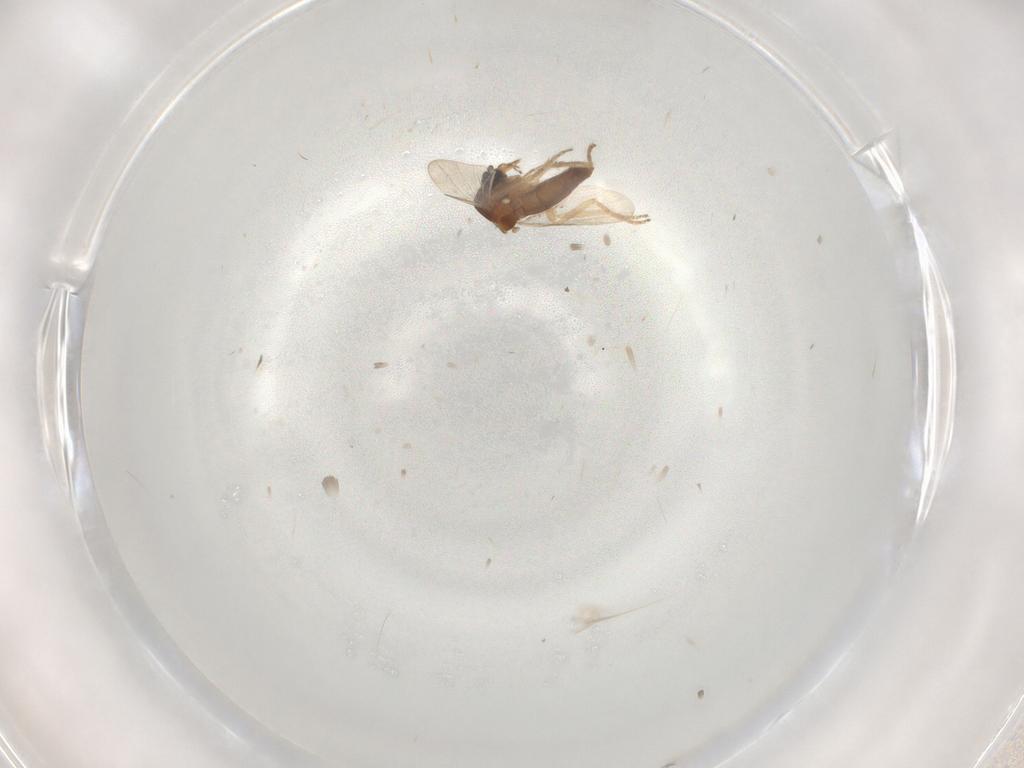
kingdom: Animalia
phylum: Arthropoda
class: Insecta
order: Diptera
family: Ceratopogonidae
